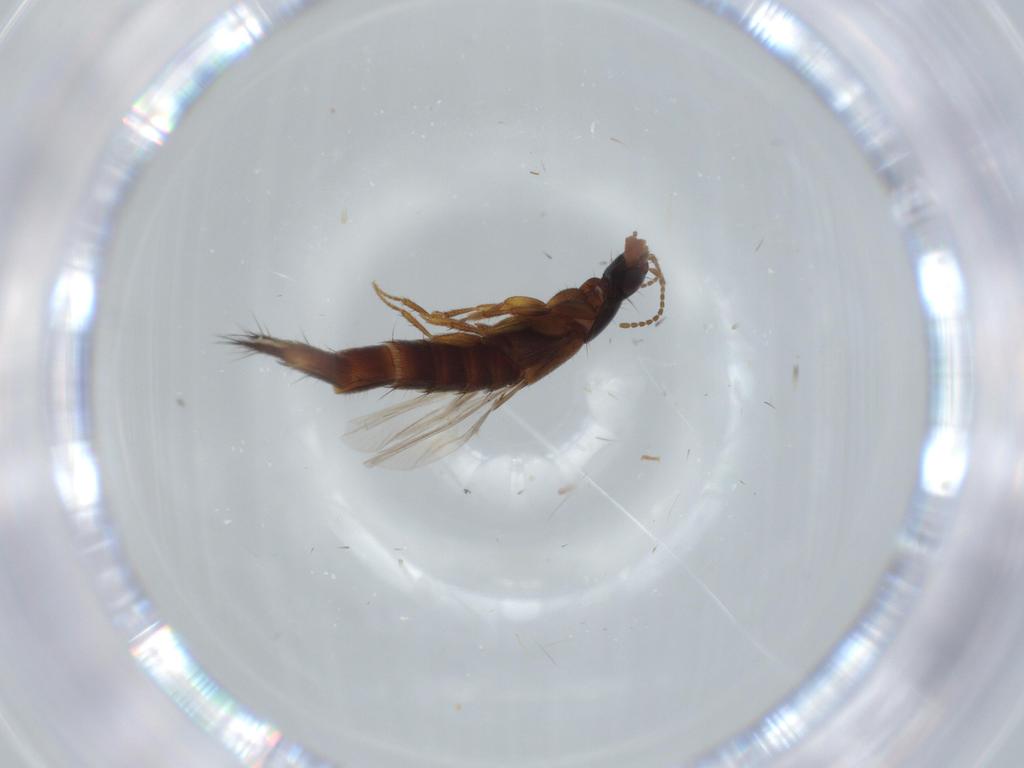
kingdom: Animalia
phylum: Arthropoda
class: Insecta
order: Coleoptera
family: Staphylinidae
